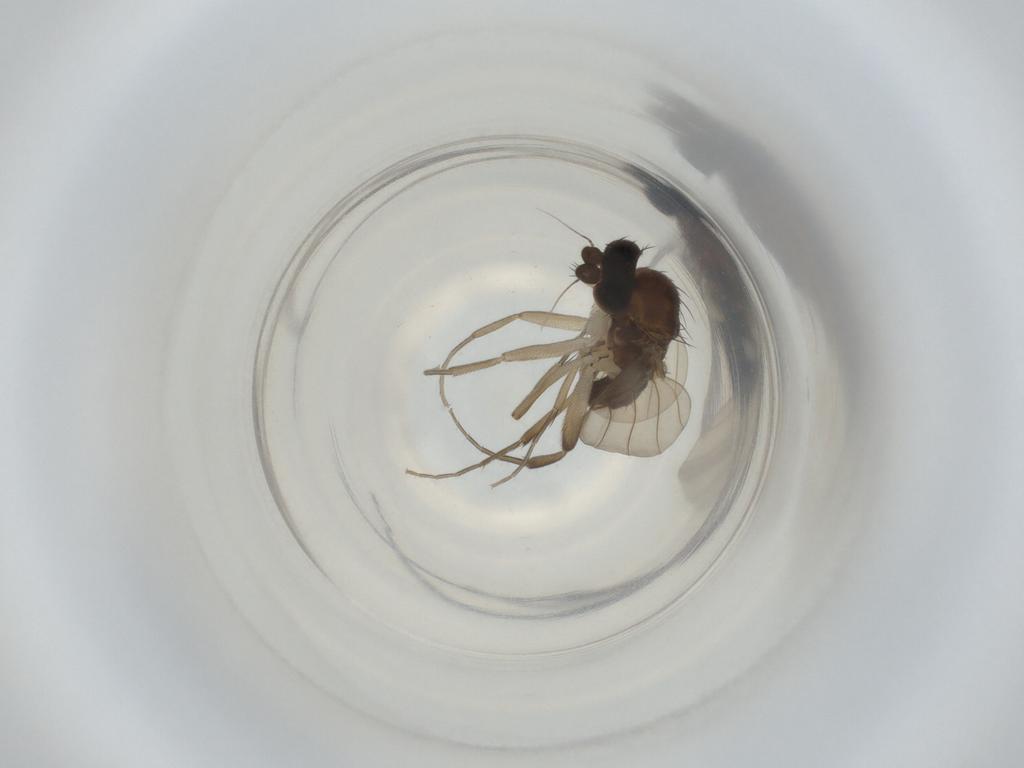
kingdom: Animalia
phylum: Arthropoda
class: Insecta
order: Diptera
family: Phoridae
